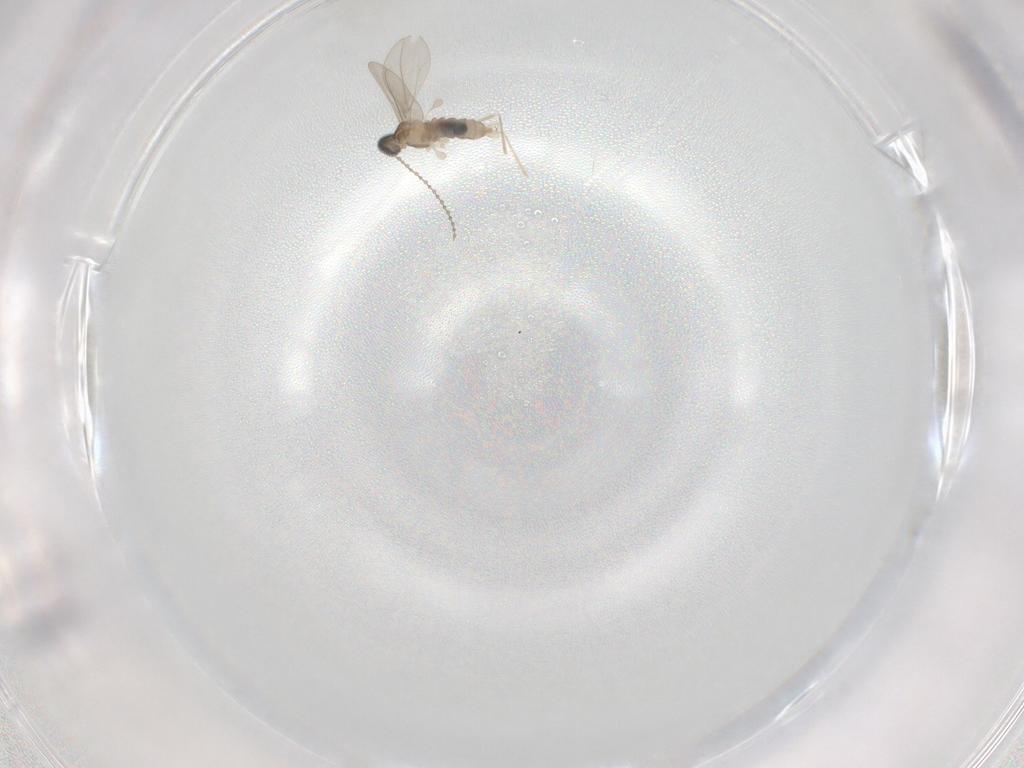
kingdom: Animalia
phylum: Arthropoda
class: Insecta
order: Diptera
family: Cecidomyiidae
